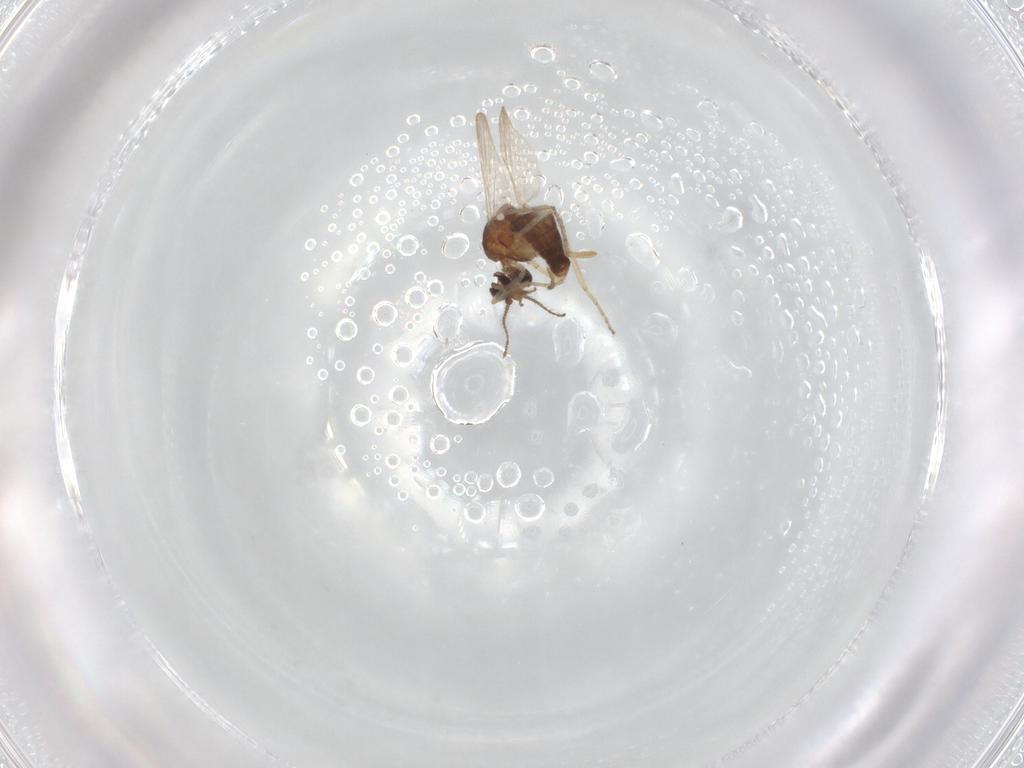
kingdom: Animalia
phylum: Arthropoda
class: Insecta
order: Diptera
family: Ceratopogonidae
